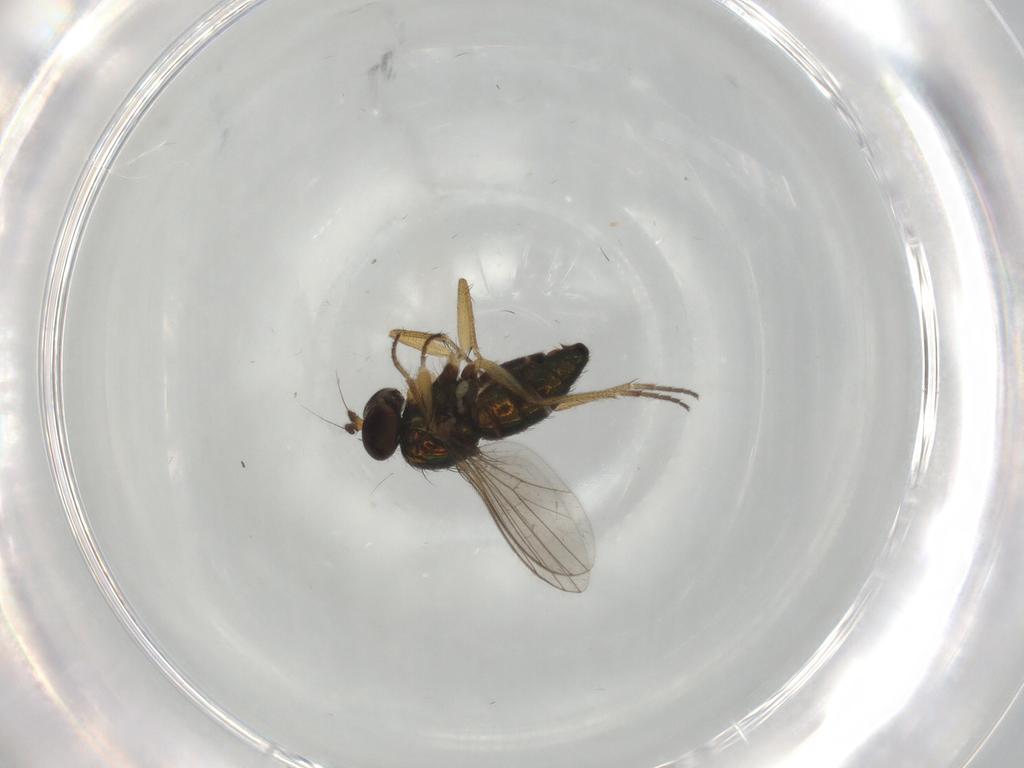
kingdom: Animalia
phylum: Arthropoda
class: Insecta
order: Diptera
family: Dolichopodidae
